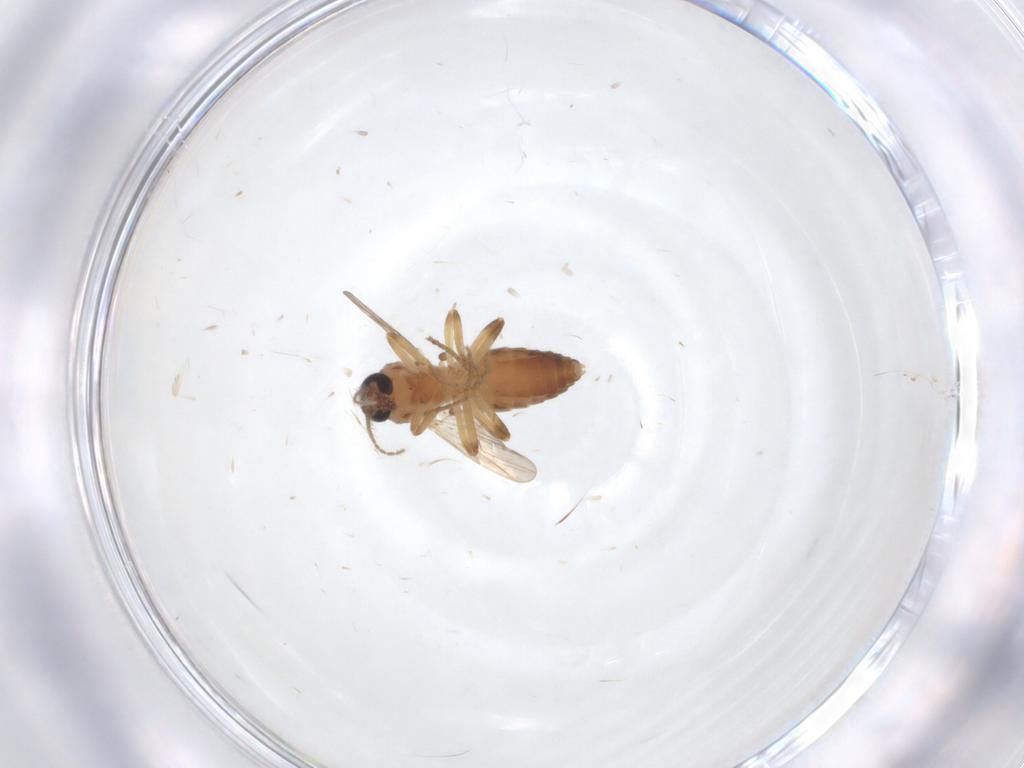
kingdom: Animalia
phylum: Arthropoda
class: Insecta
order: Diptera
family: Ceratopogonidae
